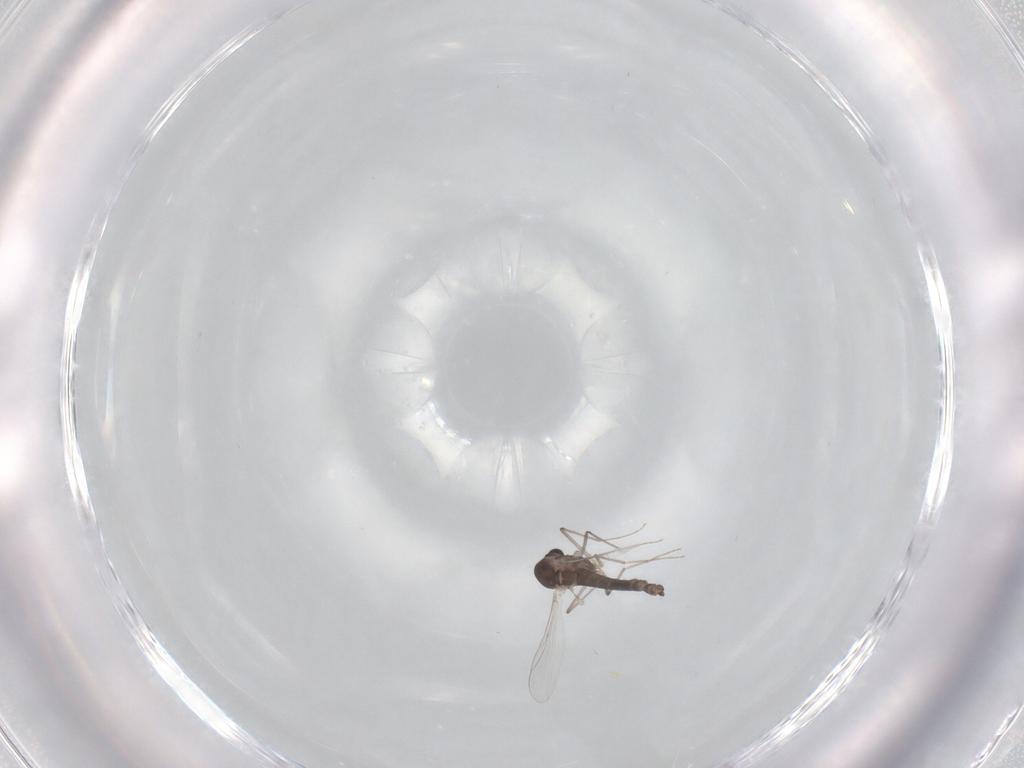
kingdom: Animalia
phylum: Arthropoda
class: Insecta
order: Diptera
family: Chironomidae
